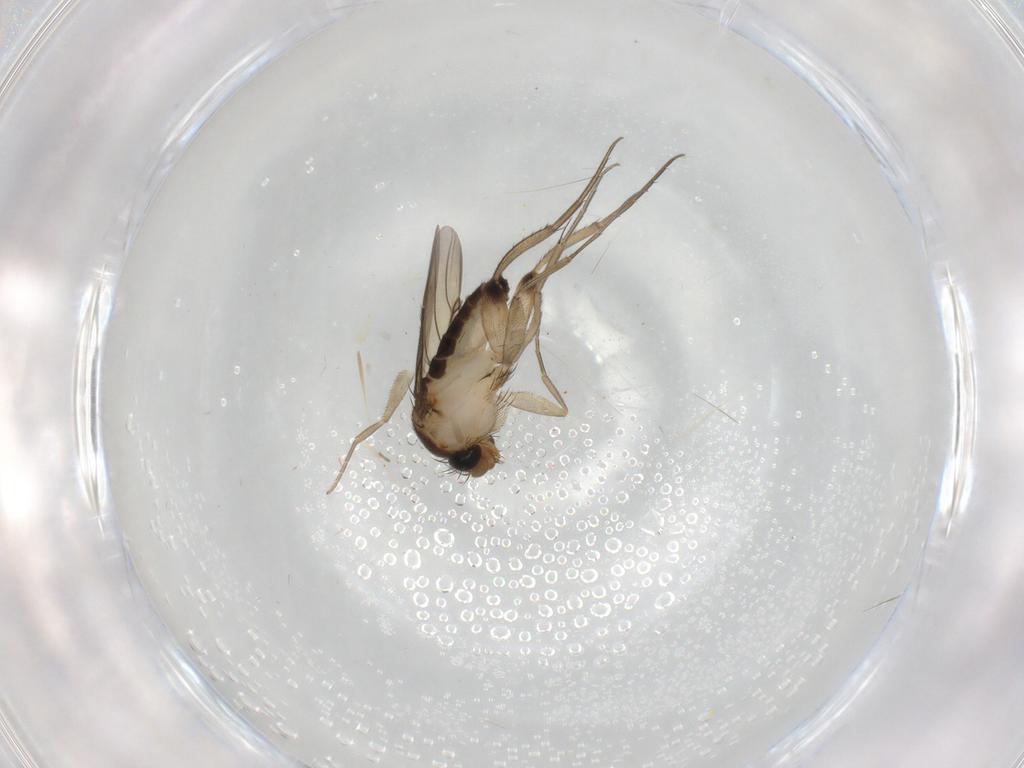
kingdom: Animalia
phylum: Arthropoda
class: Insecta
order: Diptera
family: Phoridae
